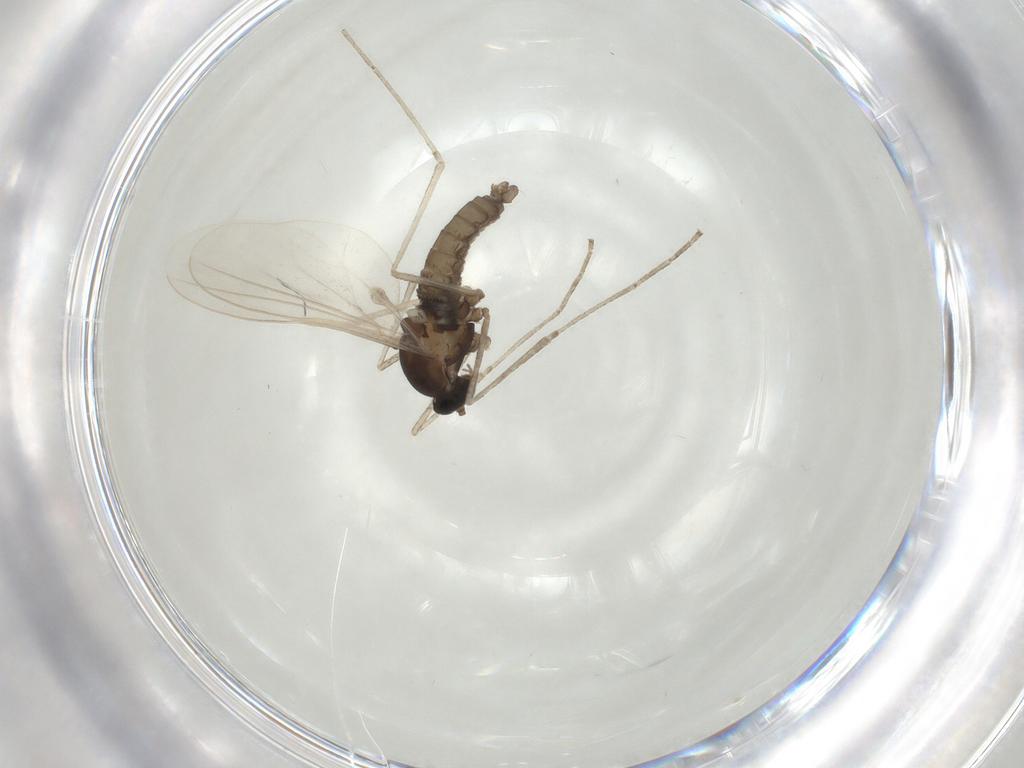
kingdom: Animalia
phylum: Arthropoda
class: Insecta
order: Diptera
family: Cecidomyiidae
